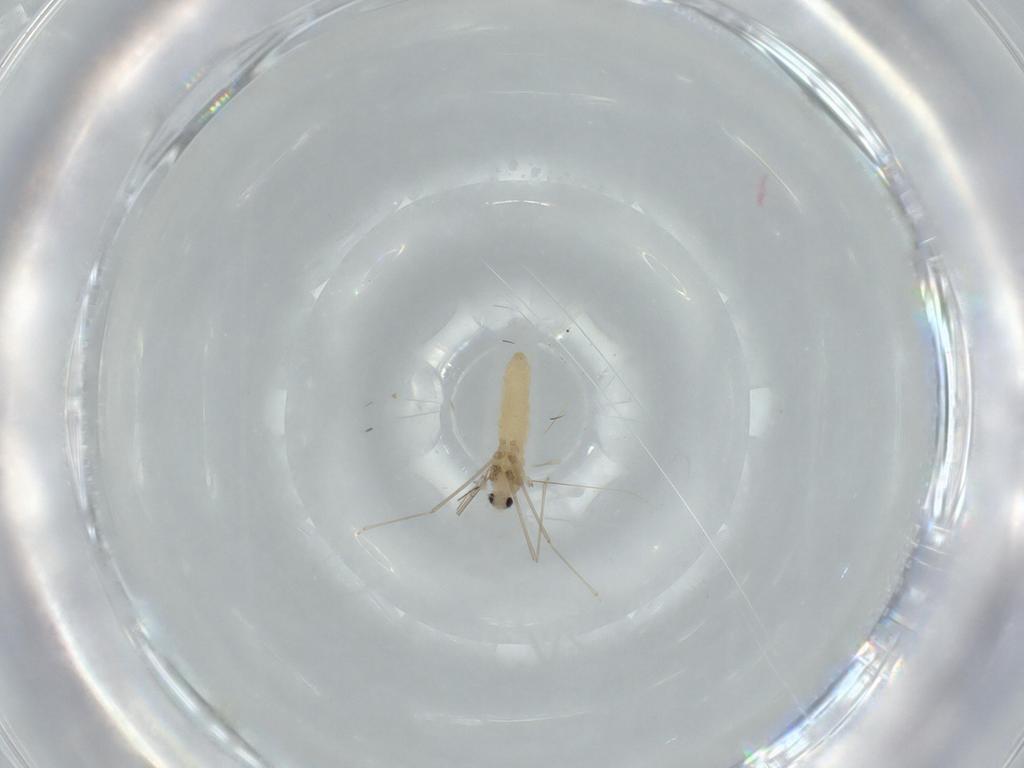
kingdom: Animalia
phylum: Arthropoda
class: Insecta
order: Diptera
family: Cecidomyiidae
